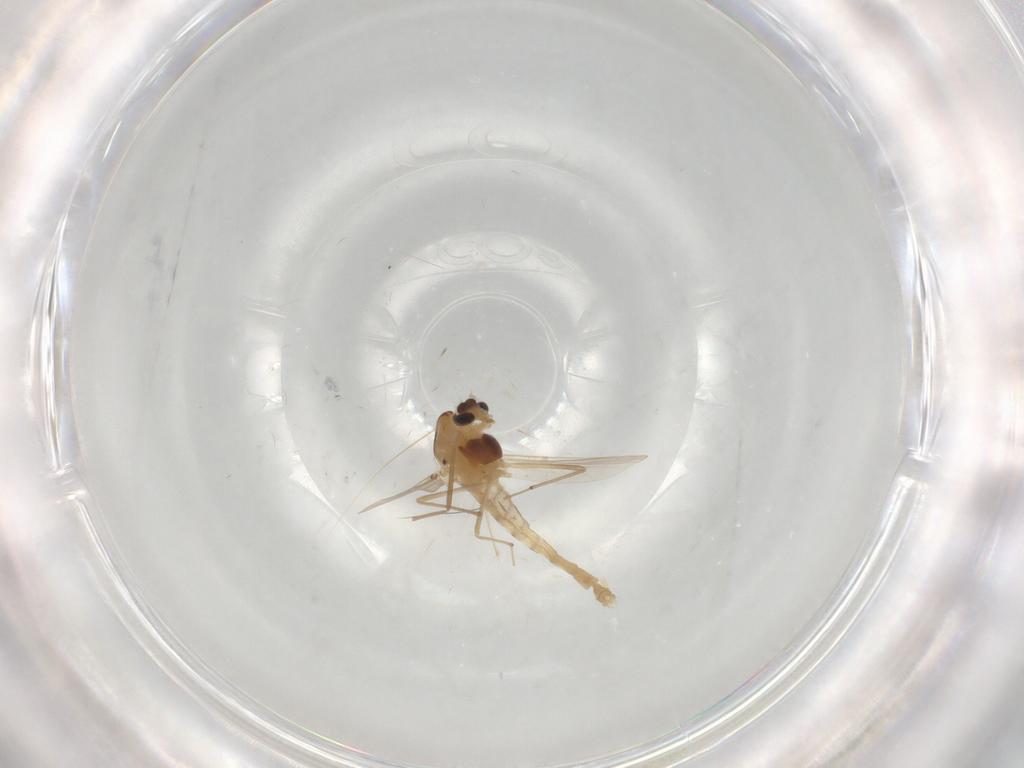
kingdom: Animalia
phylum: Arthropoda
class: Insecta
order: Diptera
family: Chironomidae
